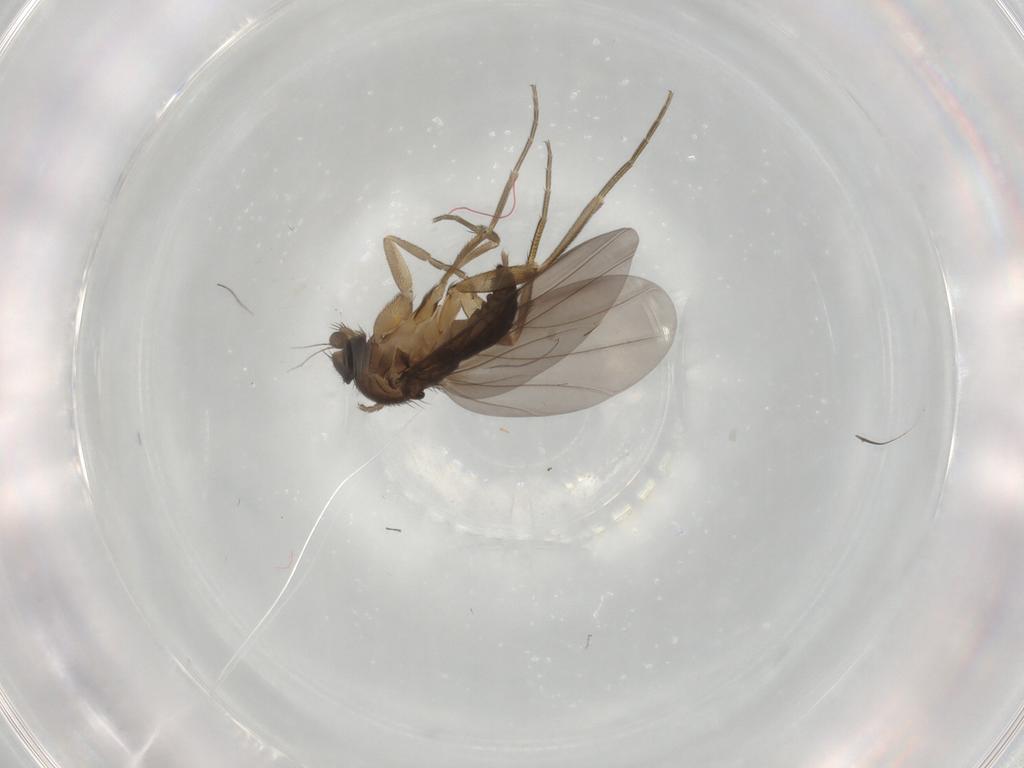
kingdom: Animalia
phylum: Arthropoda
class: Insecta
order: Diptera
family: Phoridae
